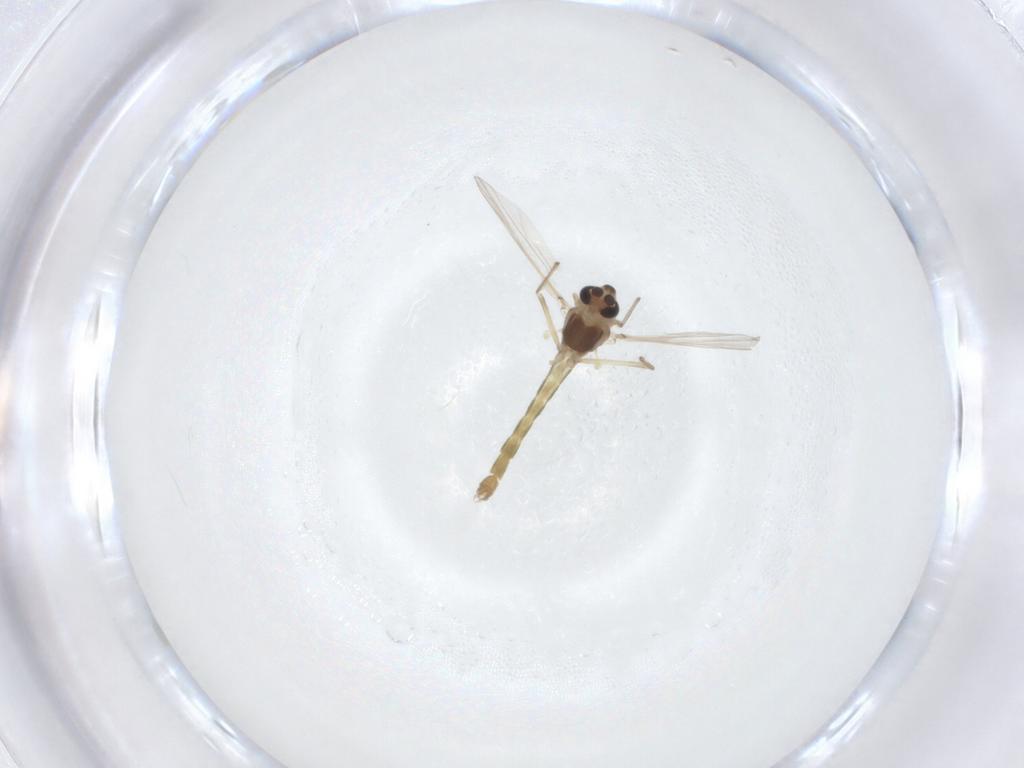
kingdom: Animalia
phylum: Arthropoda
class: Insecta
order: Diptera
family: Chironomidae
